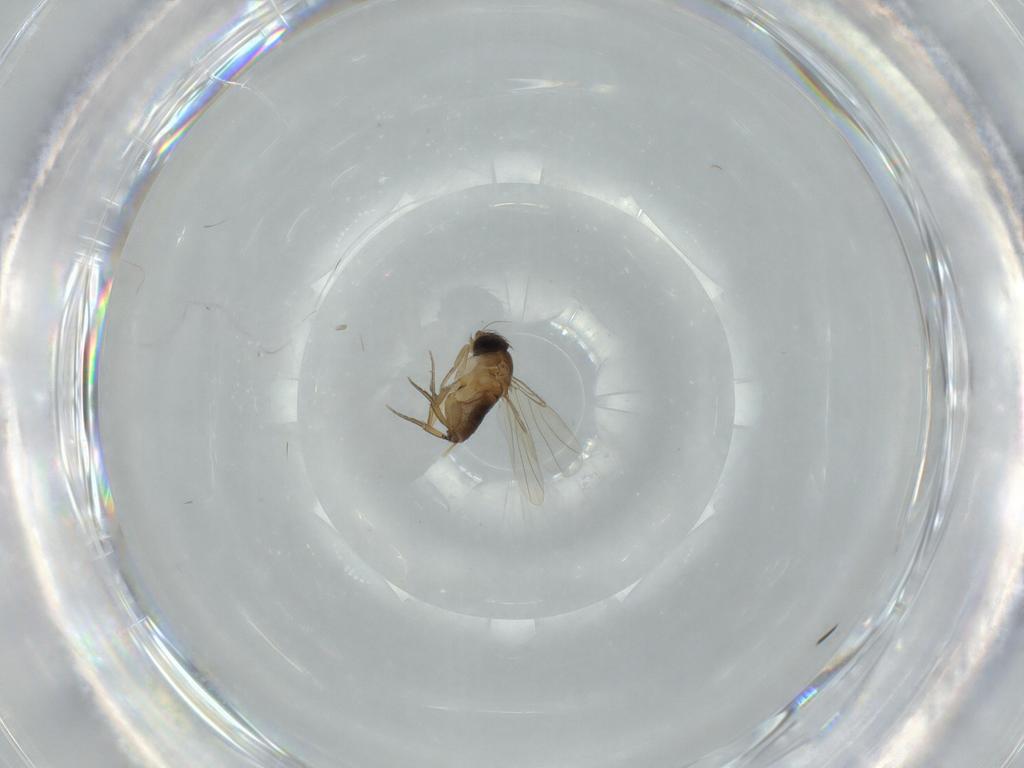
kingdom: Animalia
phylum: Arthropoda
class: Insecta
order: Diptera
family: Phoridae
